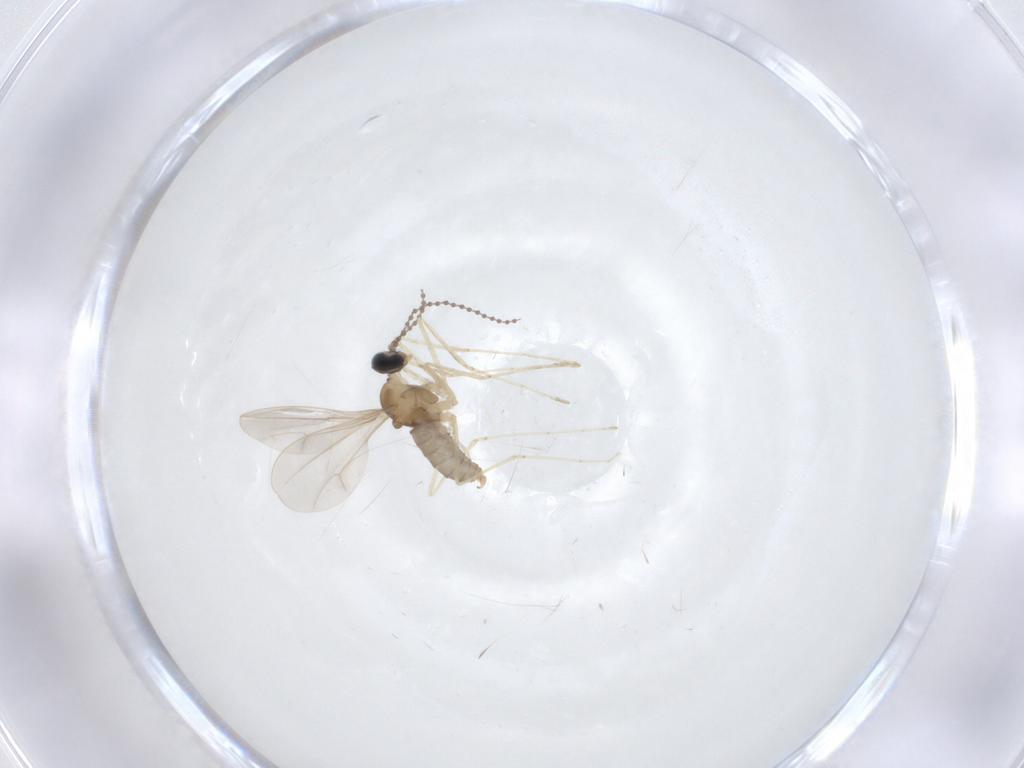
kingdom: Animalia
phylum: Arthropoda
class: Insecta
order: Diptera
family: Cecidomyiidae
